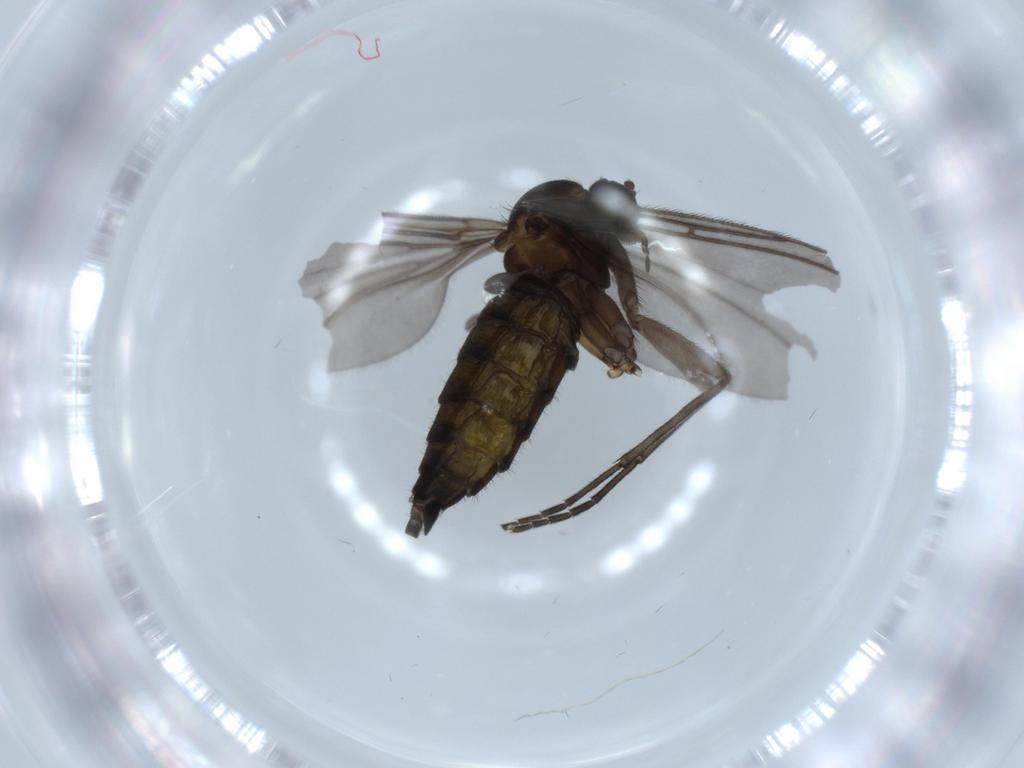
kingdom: Animalia
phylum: Arthropoda
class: Insecta
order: Diptera
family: Sciaridae
